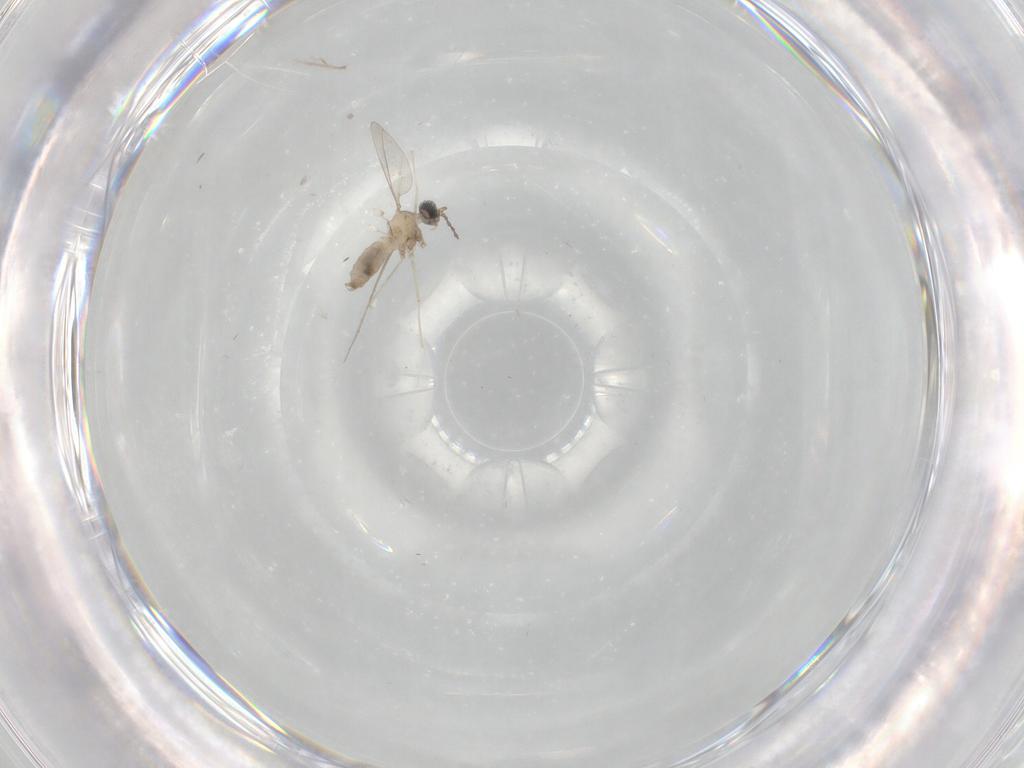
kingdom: Animalia
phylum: Arthropoda
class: Insecta
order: Diptera
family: Cecidomyiidae
